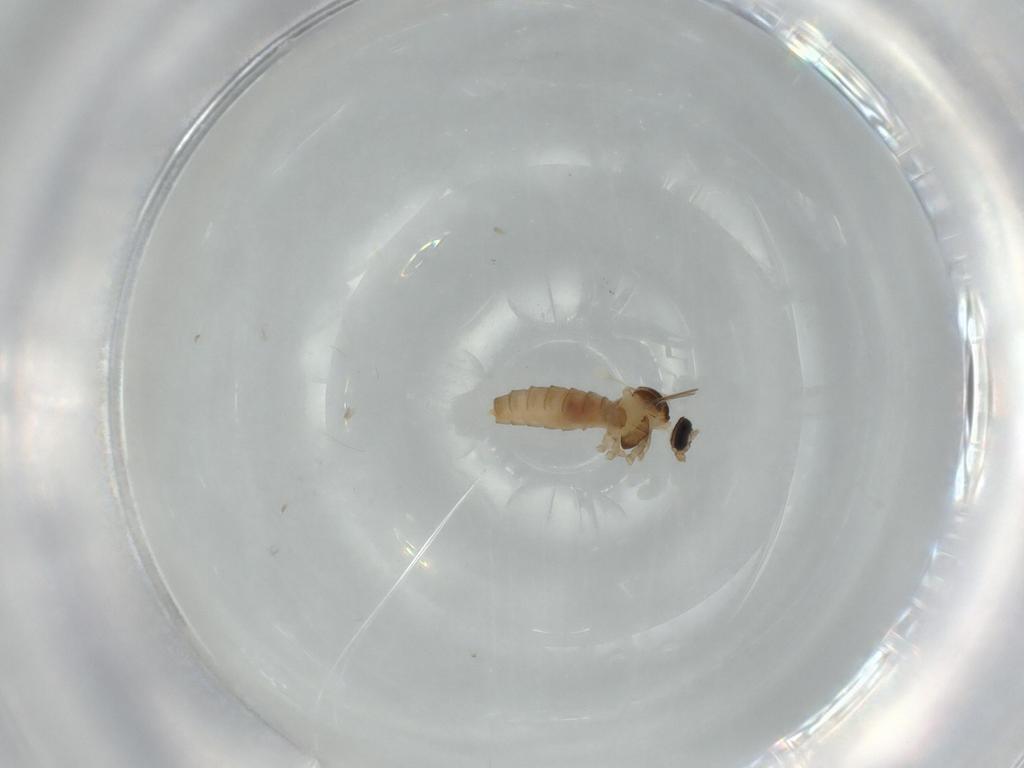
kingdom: Animalia
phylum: Arthropoda
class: Insecta
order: Diptera
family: Cecidomyiidae
